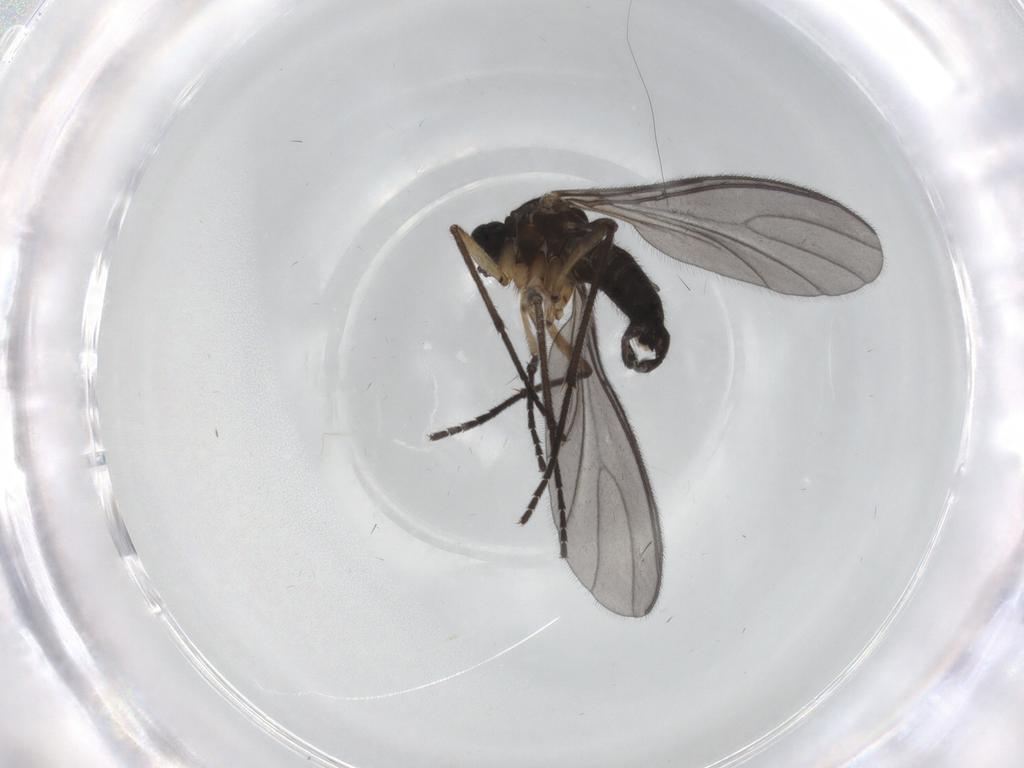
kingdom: Animalia
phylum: Arthropoda
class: Insecta
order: Diptera
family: Sciaridae
